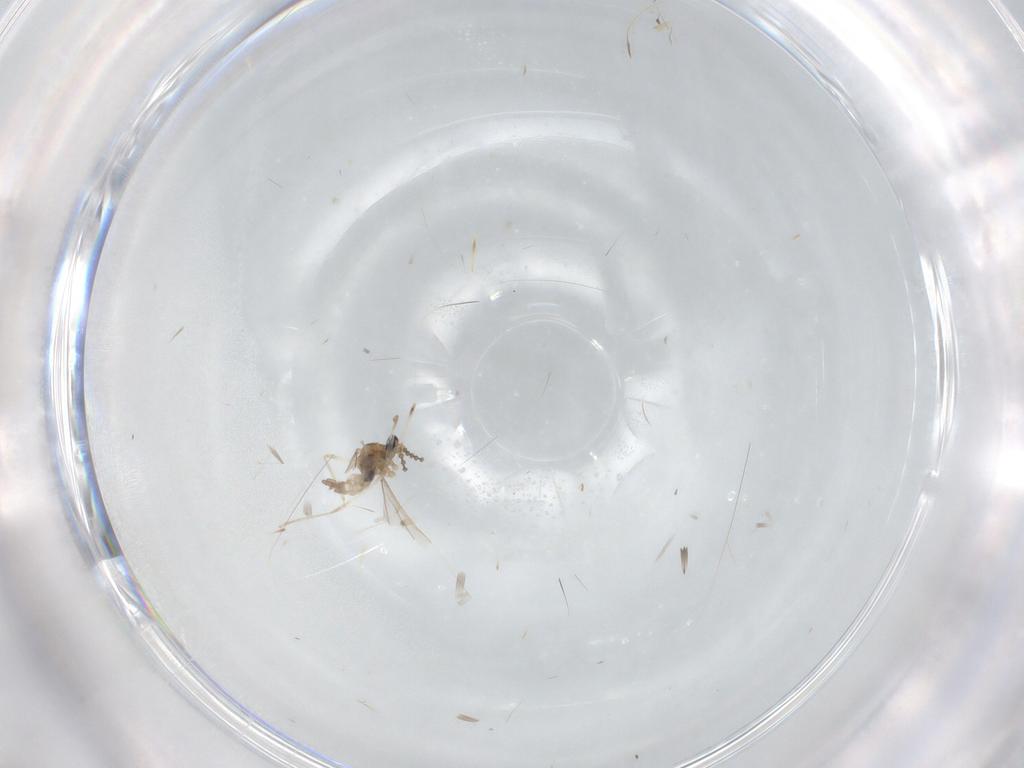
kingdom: Animalia
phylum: Arthropoda
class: Insecta
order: Diptera
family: Cecidomyiidae
